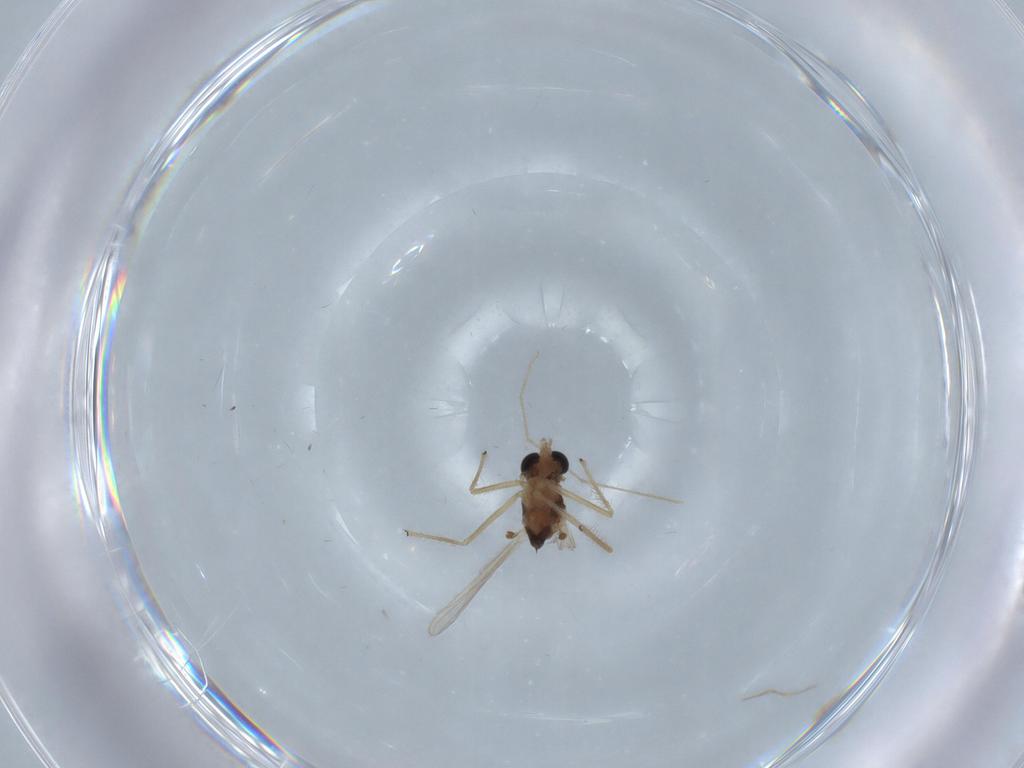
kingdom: Animalia
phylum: Arthropoda
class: Insecta
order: Diptera
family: Chironomidae
